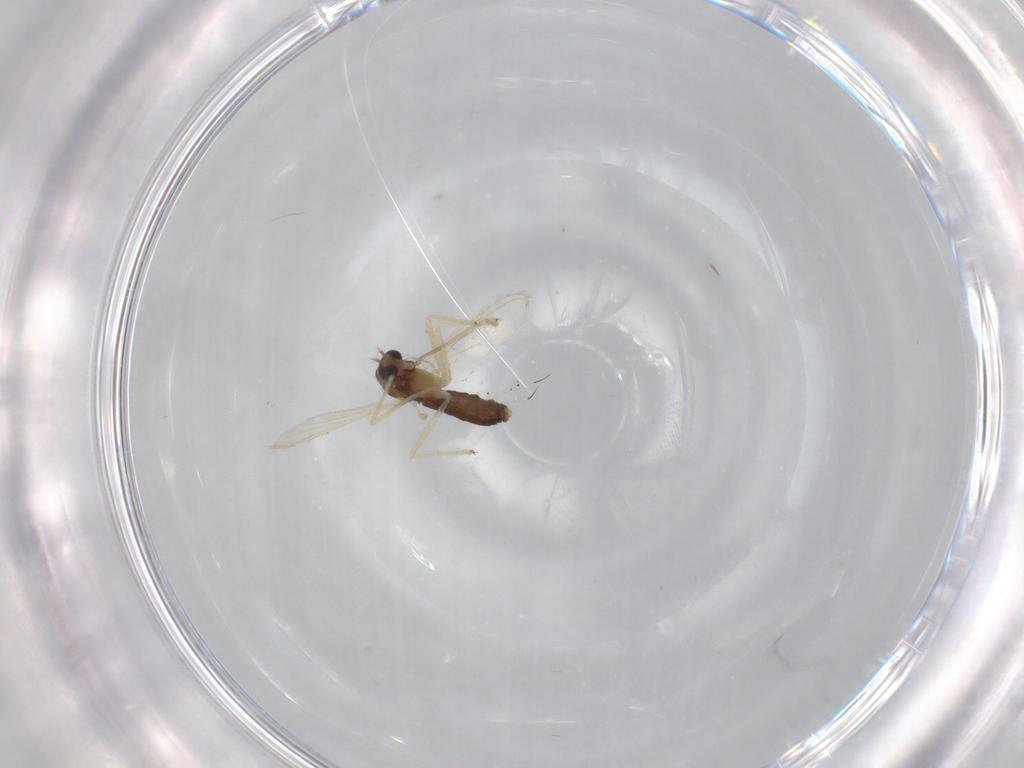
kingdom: Animalia
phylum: Arthropoda
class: Insecta
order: Diptera
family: Chironomidae
